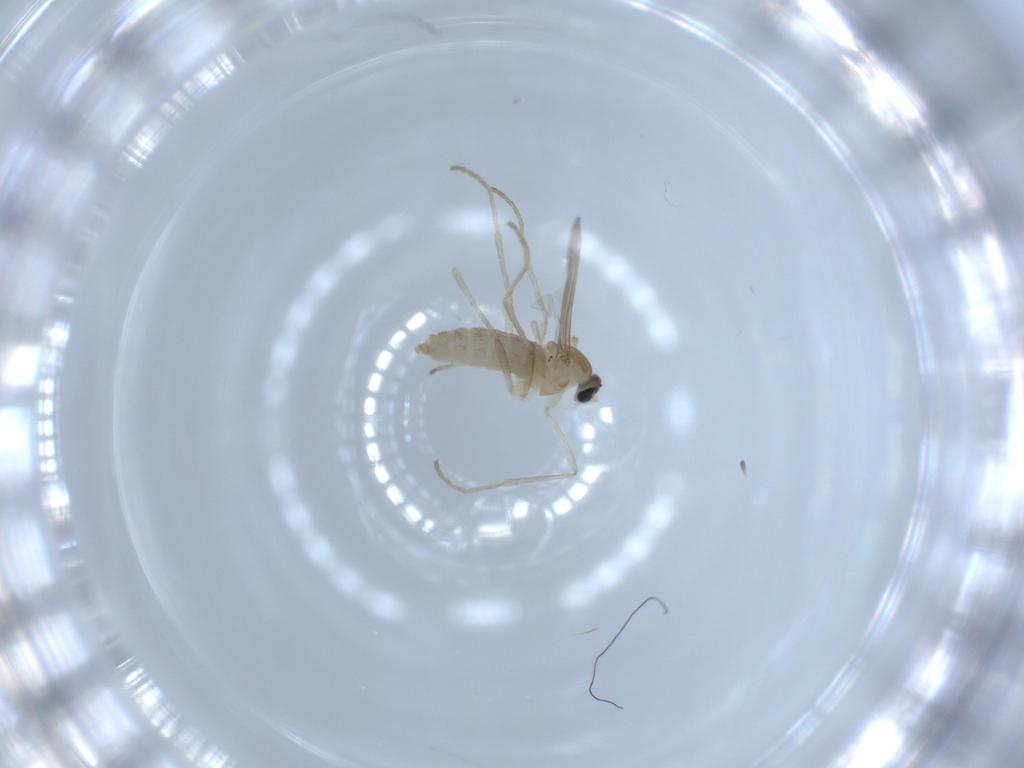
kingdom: Animalia
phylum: Arthropoda
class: Insecta
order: Diptera
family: Cecidomyiidae
